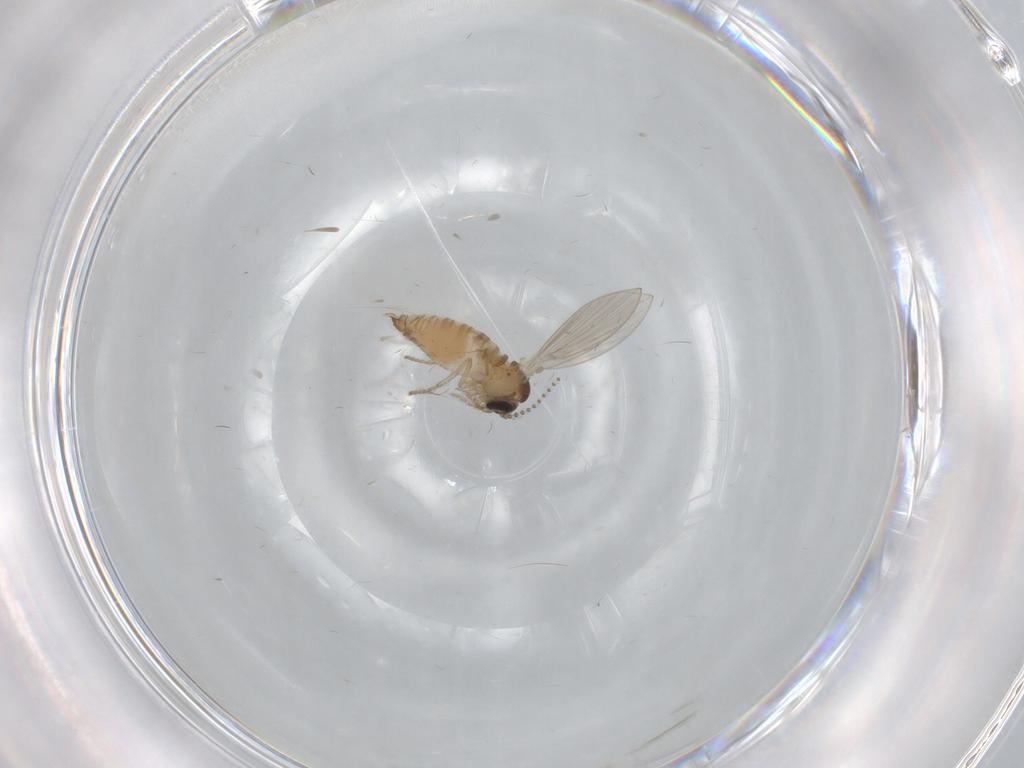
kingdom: Animalia
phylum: Arthropoda
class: Insecta
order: Diptera
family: Psychodidae
